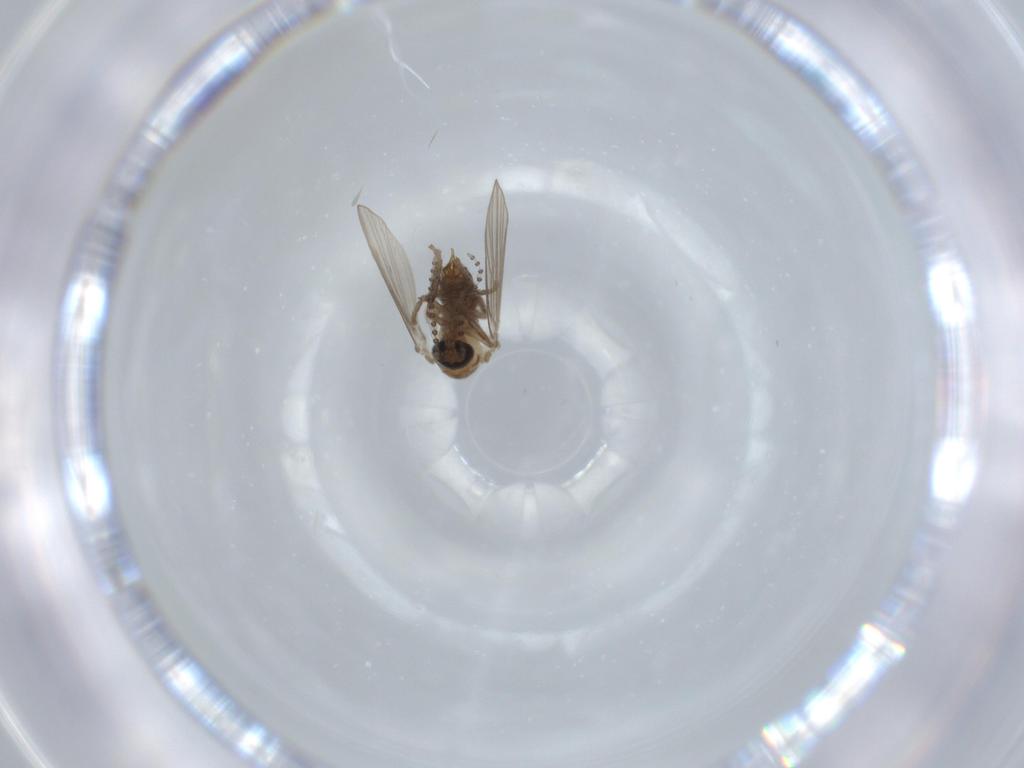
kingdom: Animalia
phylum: Arthropoda
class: Insecta
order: Diptera
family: Psychodidae
